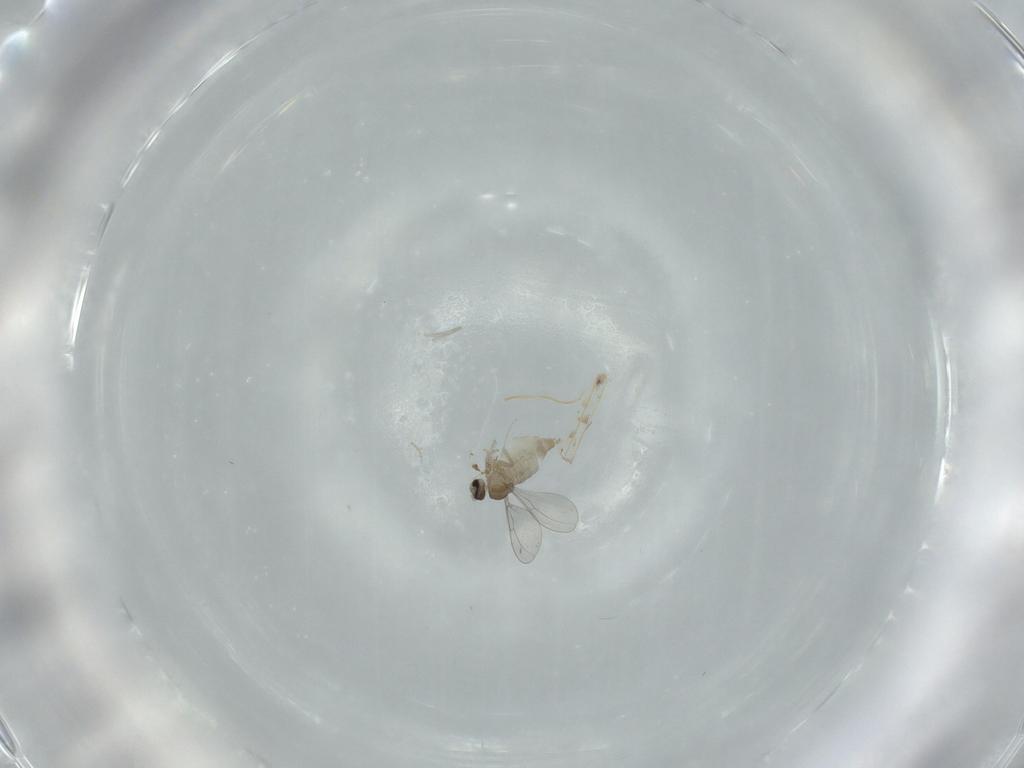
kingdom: Animalia
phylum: Arthropoda
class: Insecta
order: Diptera
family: Cecidomyiidae
